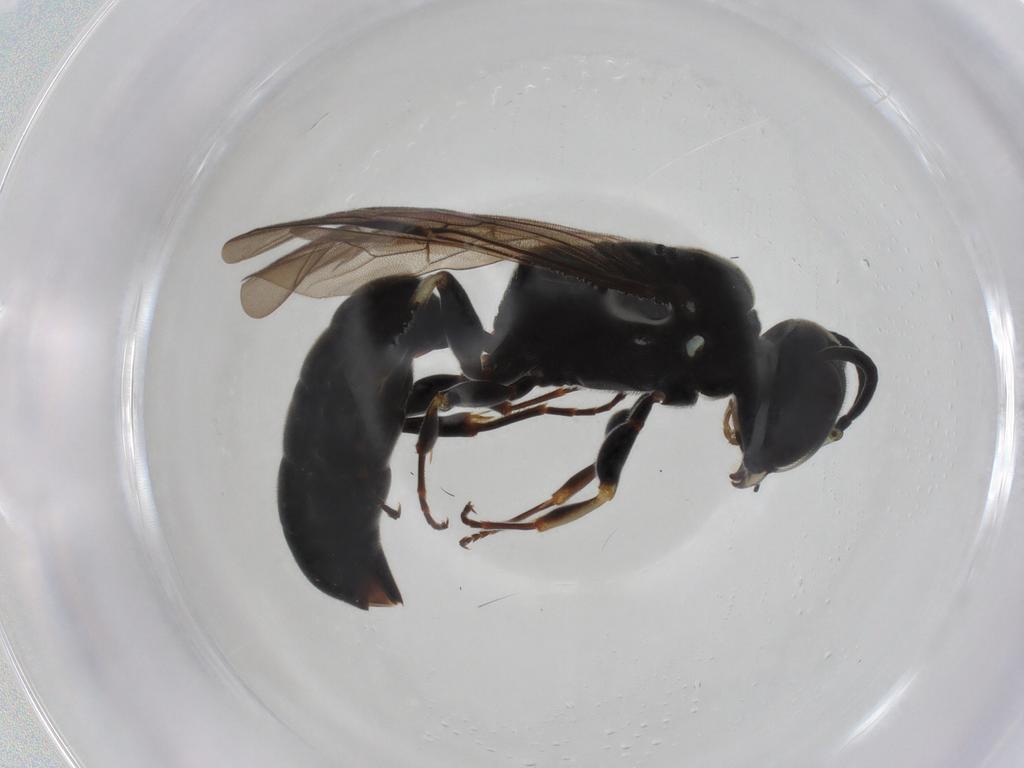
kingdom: Animalia
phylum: Arthropoda
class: Insecta
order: Hymenoptera
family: Crabronidae
